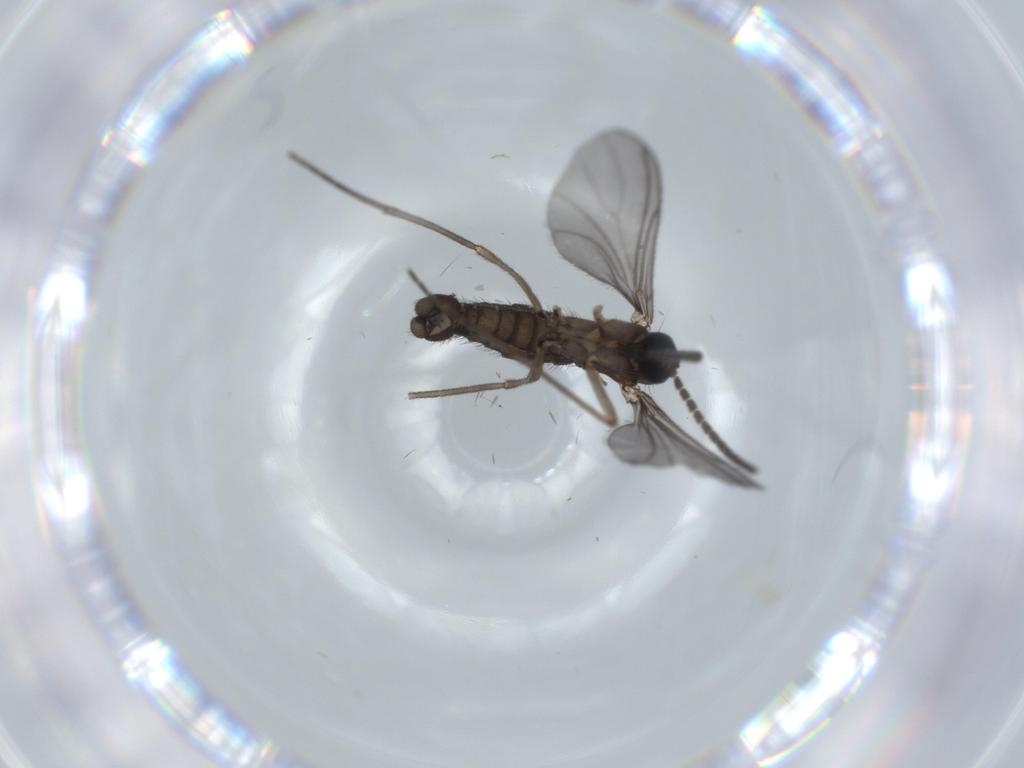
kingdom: Animalia
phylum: Arthropoda
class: Insecta
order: Diptera
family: Sciaridae
